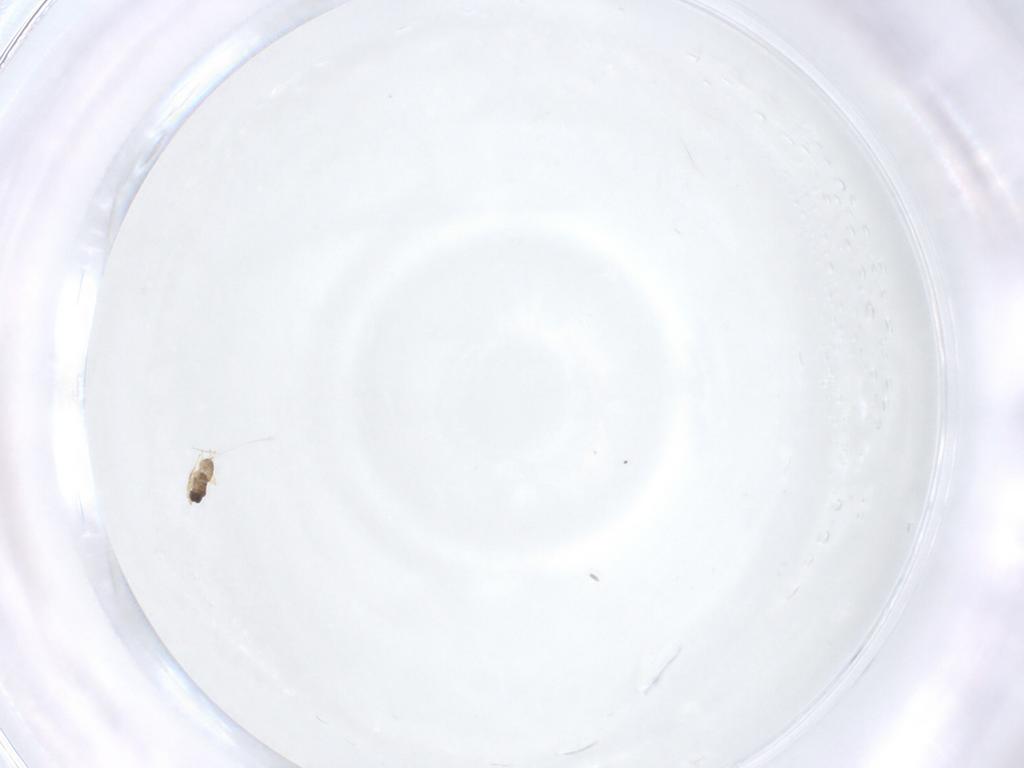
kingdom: Animalia
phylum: Arthropoda
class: Insecta
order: Hymenoptera
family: Mymaridae
